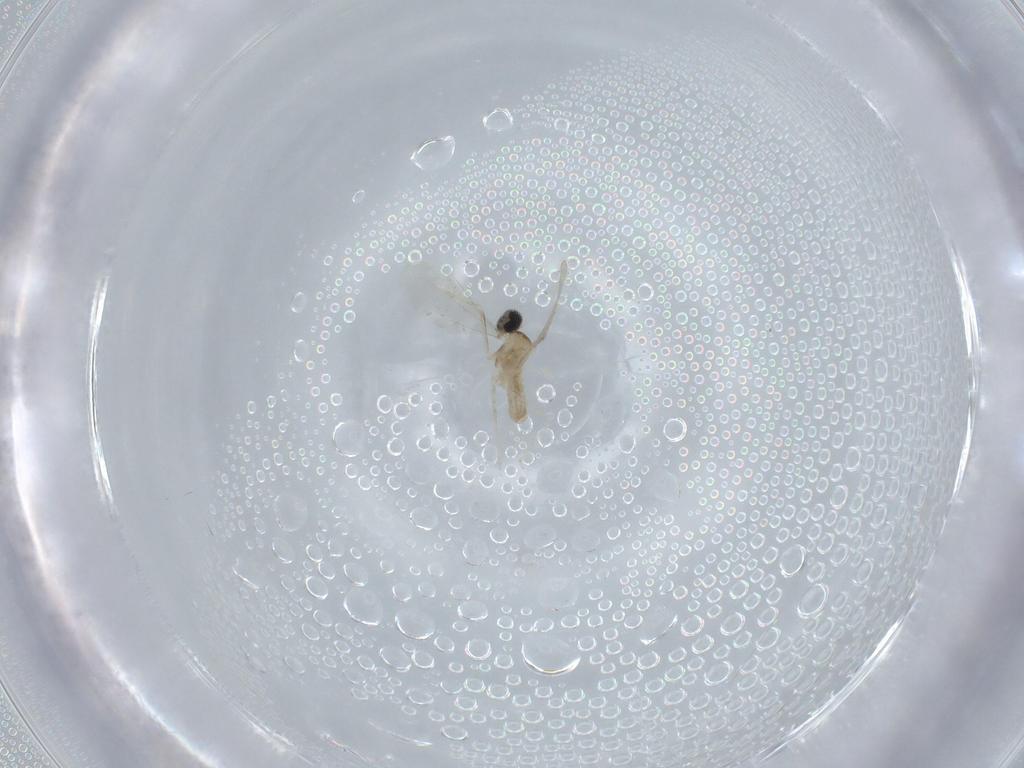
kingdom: Animalia
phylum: Arthropoda
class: Insecta
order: Diptera
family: Cecidomyiidae
